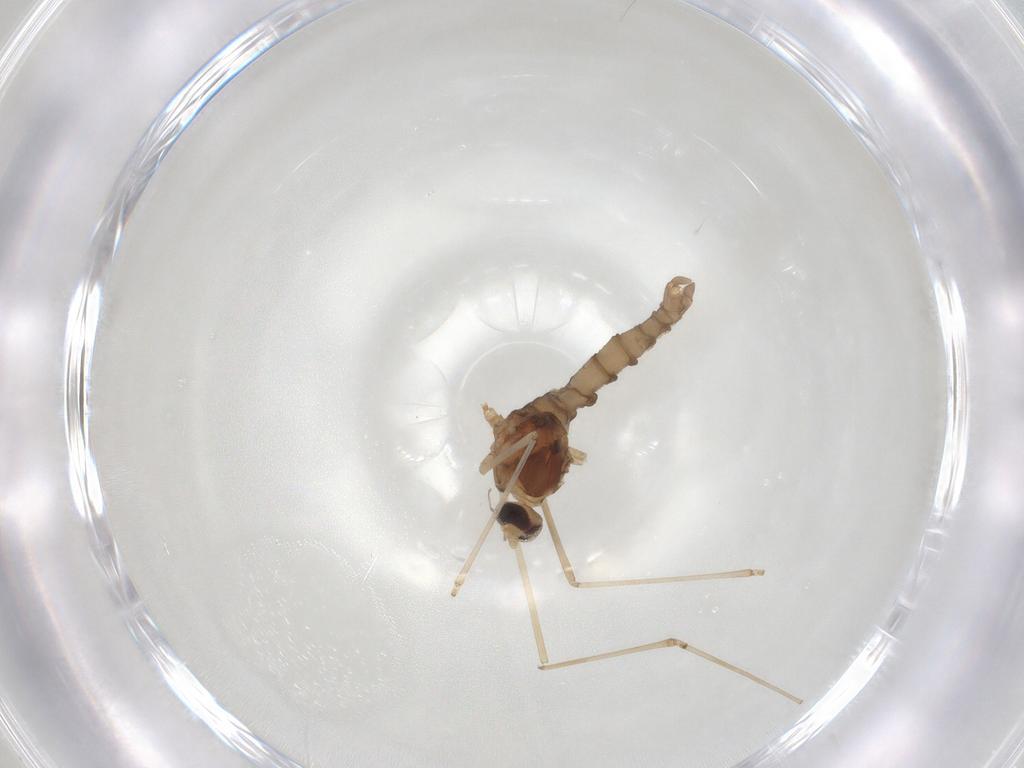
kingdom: Animalia
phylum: Arthropoda
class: Insecta
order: Diptera
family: Cecidomyiidae
